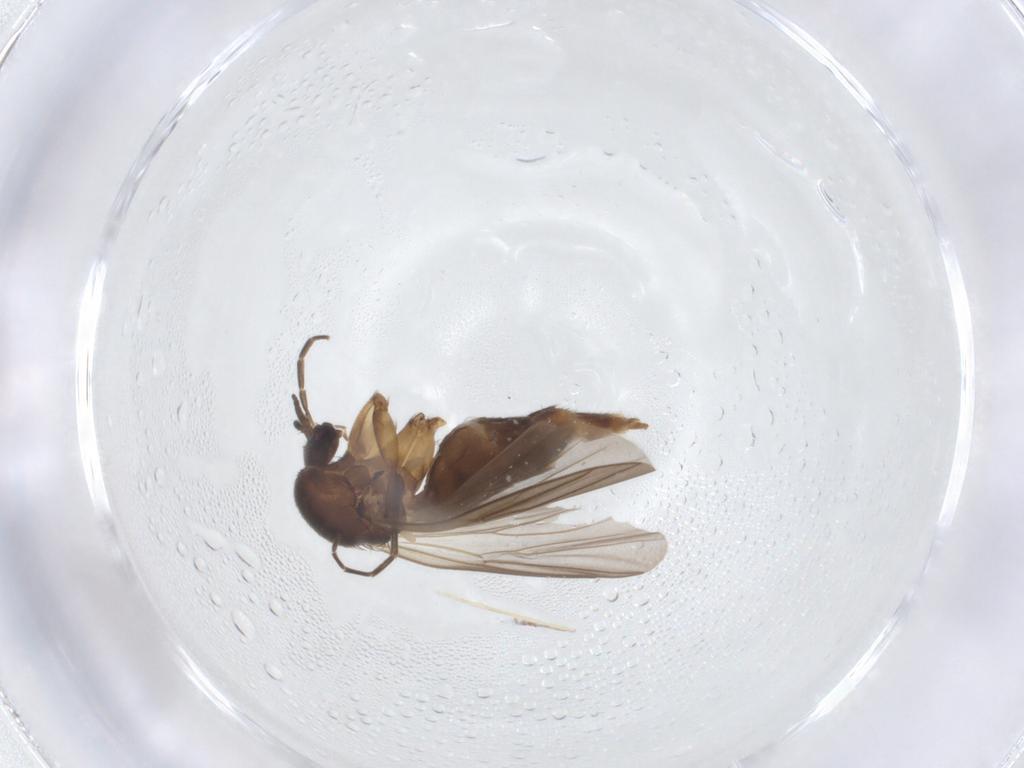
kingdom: Animalia
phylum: Arthropoda
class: Insecta
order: Diptera
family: Mycetophilidae
